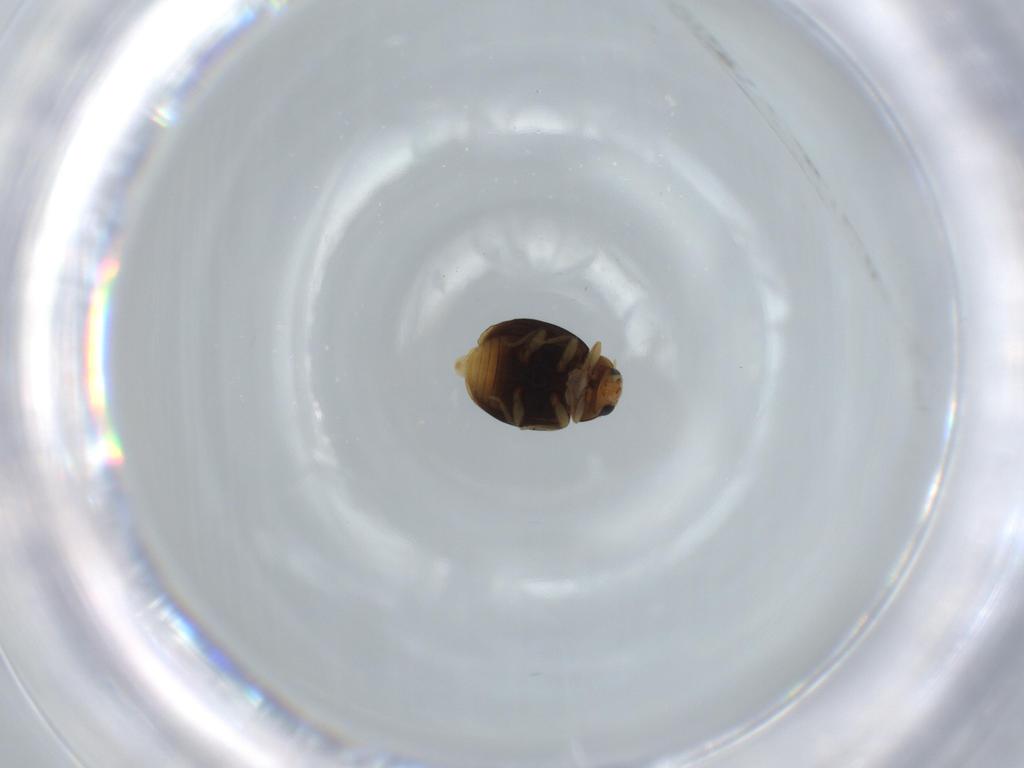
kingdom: Animalia
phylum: Arthropoda
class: Insecta
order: Coleoptera
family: Coccinellidae
